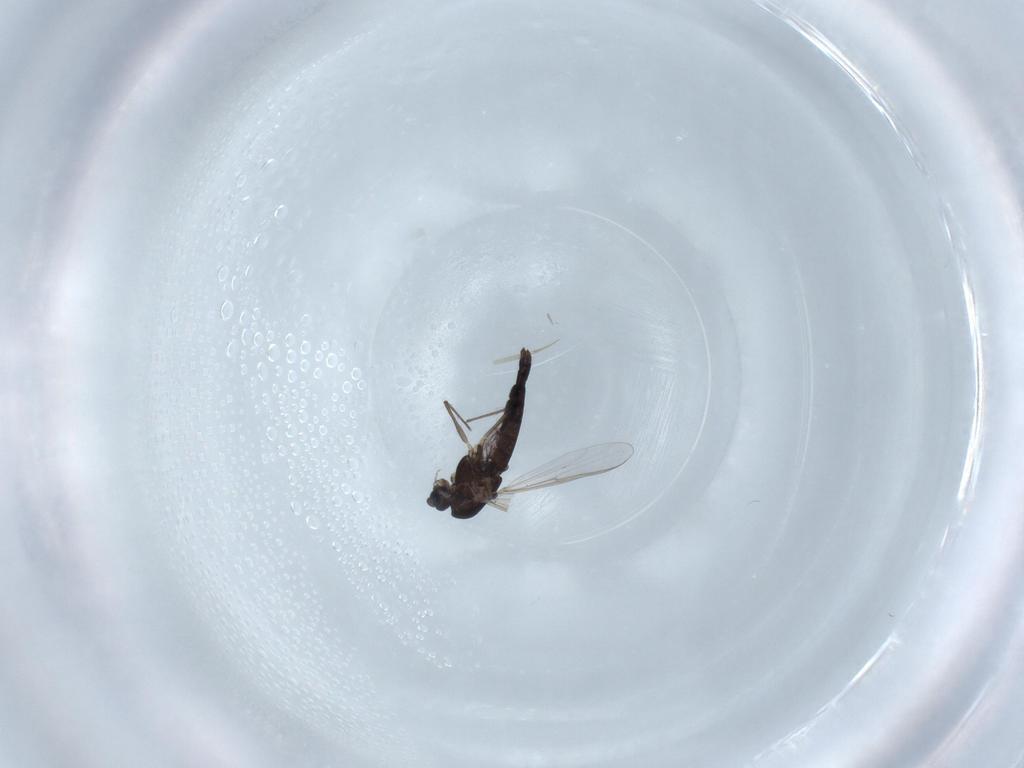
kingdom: Animalia
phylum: Arthropoda
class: Insecta
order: Diptera
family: Chironomidae
